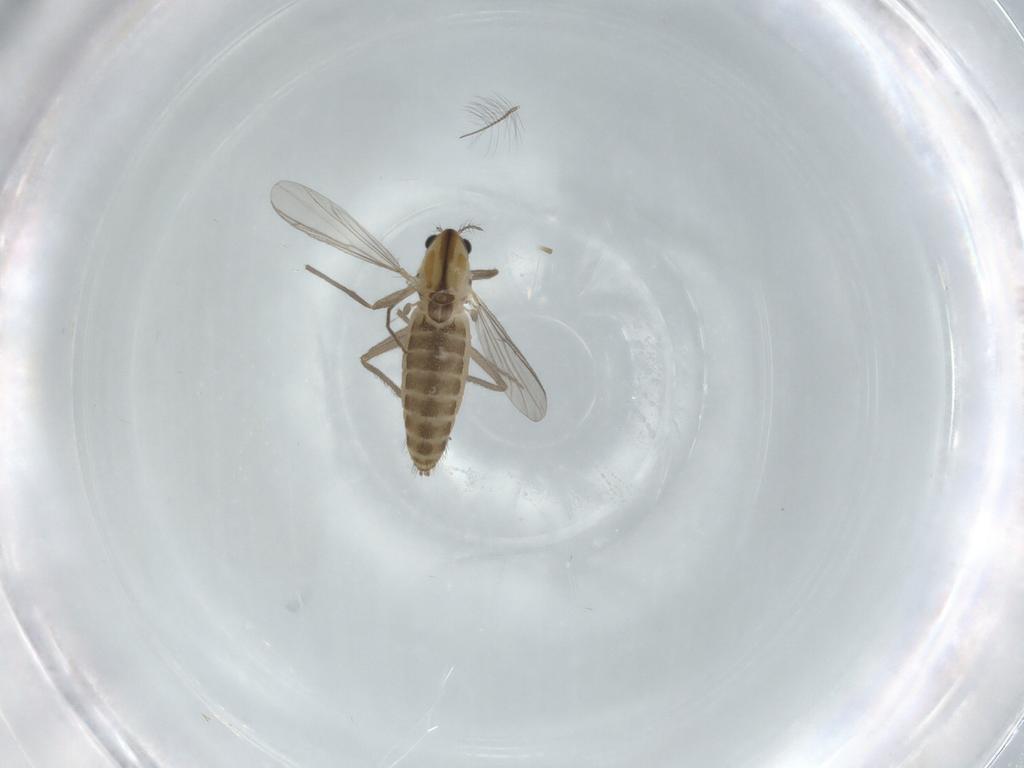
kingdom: Animalia
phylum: Arthropoda
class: Insecta
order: Diptera
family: Chironomidae
